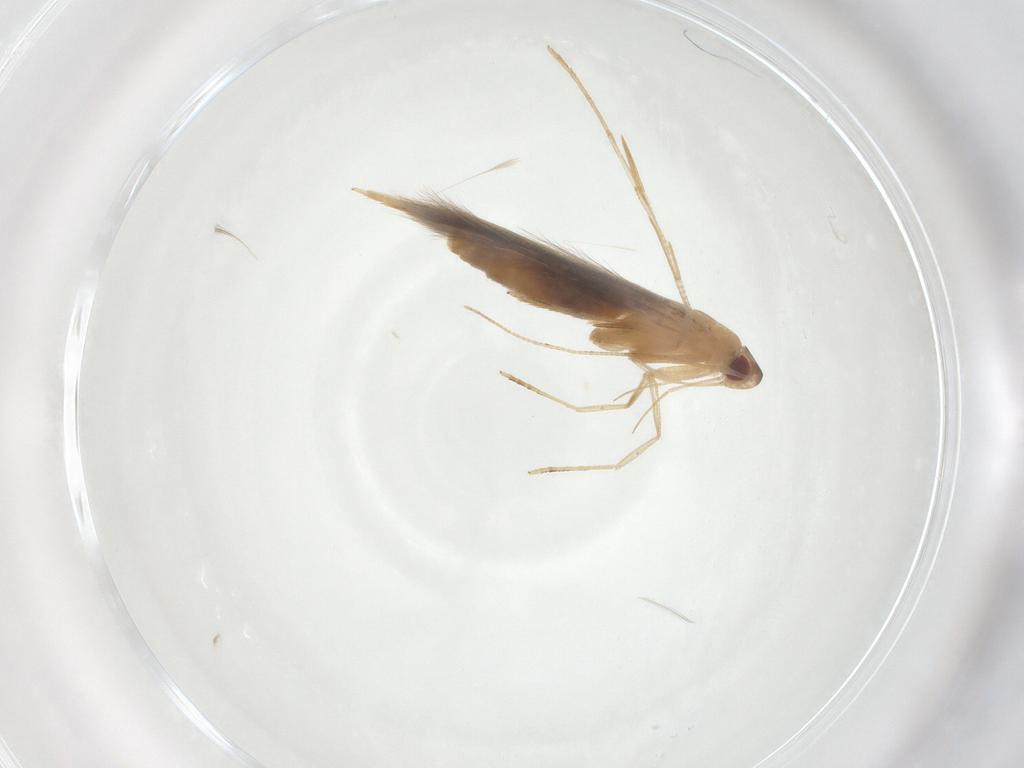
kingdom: Animalia
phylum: Arthropoda
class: Insecta
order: Lepidoptera
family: Cosmopterigidae
